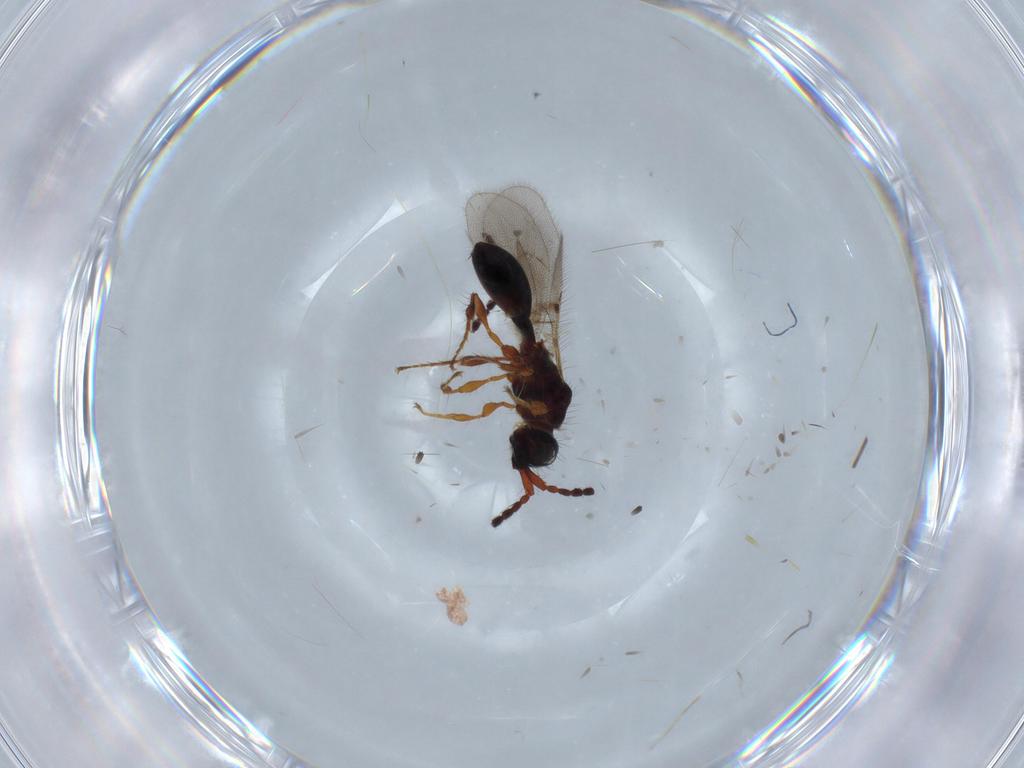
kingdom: Animalia
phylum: Arthropoda
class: Insecta
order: Hymenoptera
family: Diapriidae
